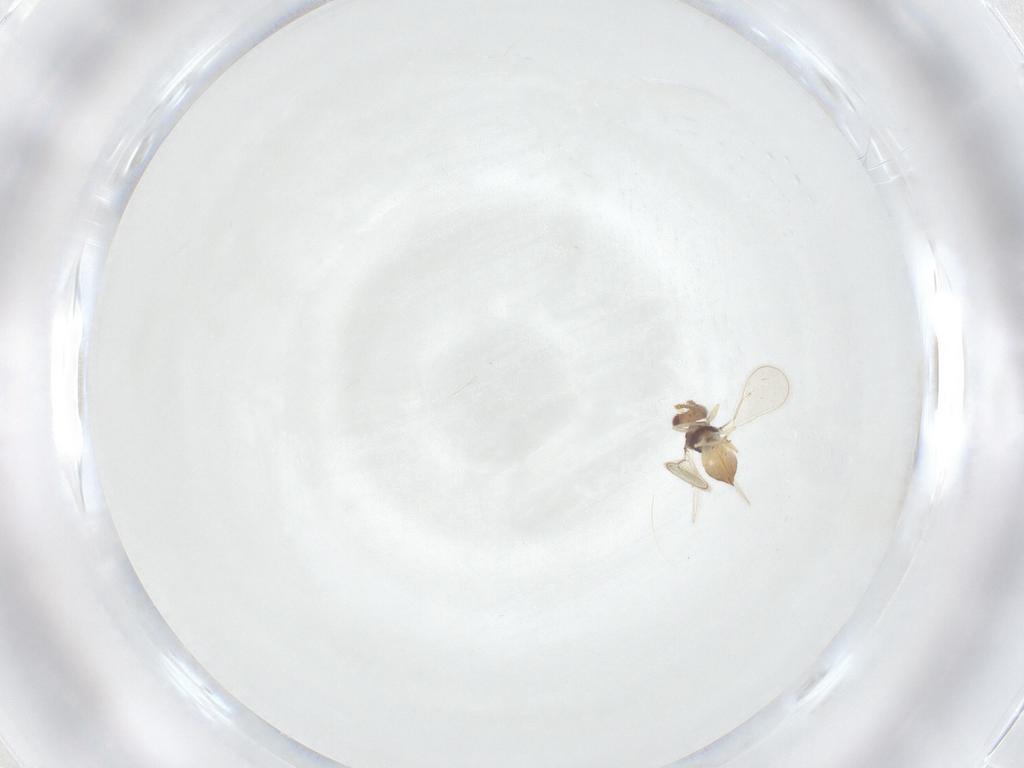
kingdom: Animalia
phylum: Arthropoda
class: Insecta
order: Hymenoptera
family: Eulophidae
